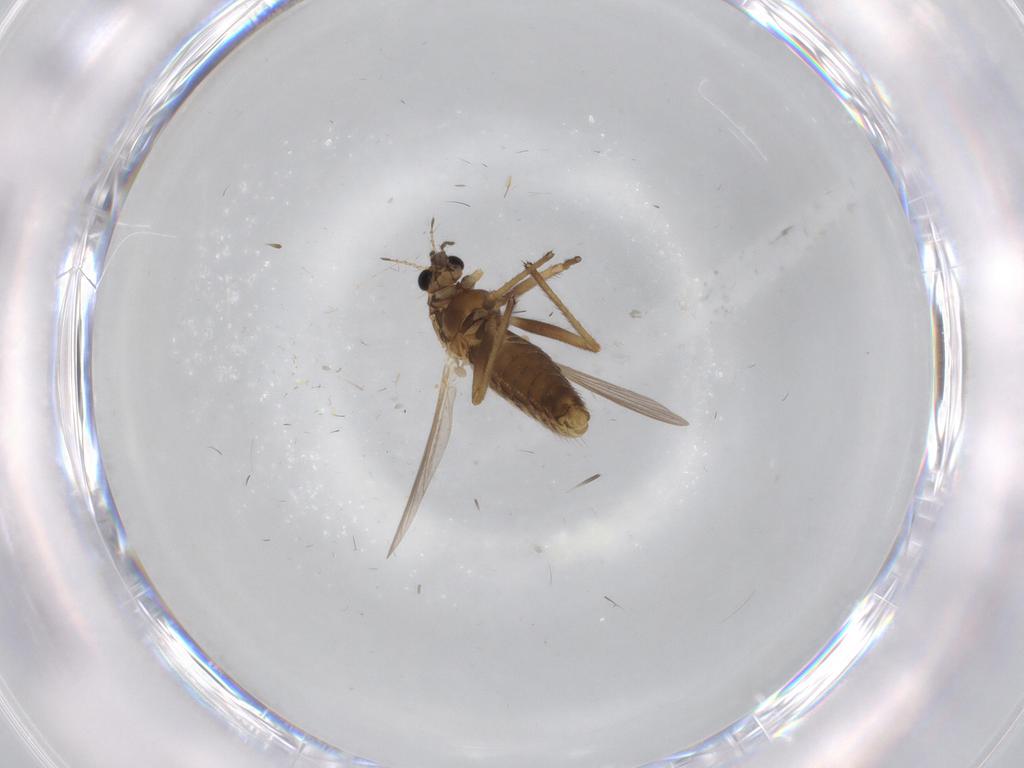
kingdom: Animalia
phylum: Arthropoda
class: Insecta
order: Diptera
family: Chironomidae
